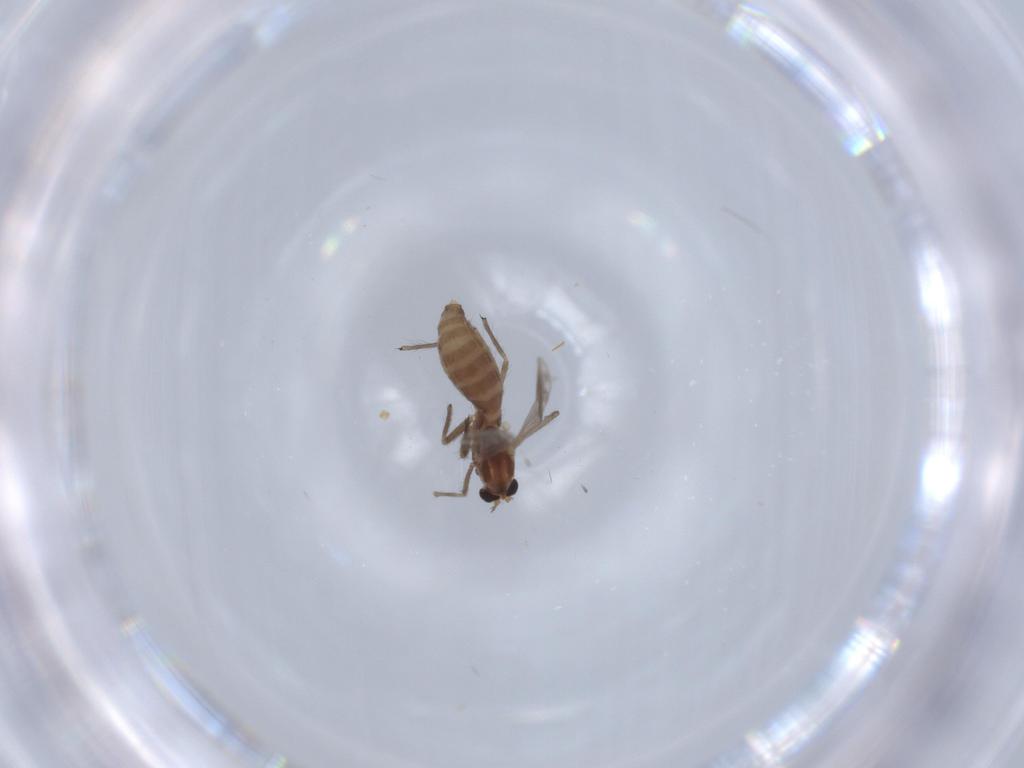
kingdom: Animalia
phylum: Arthropoda
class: Insecta
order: Diptera
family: Chironomidae
